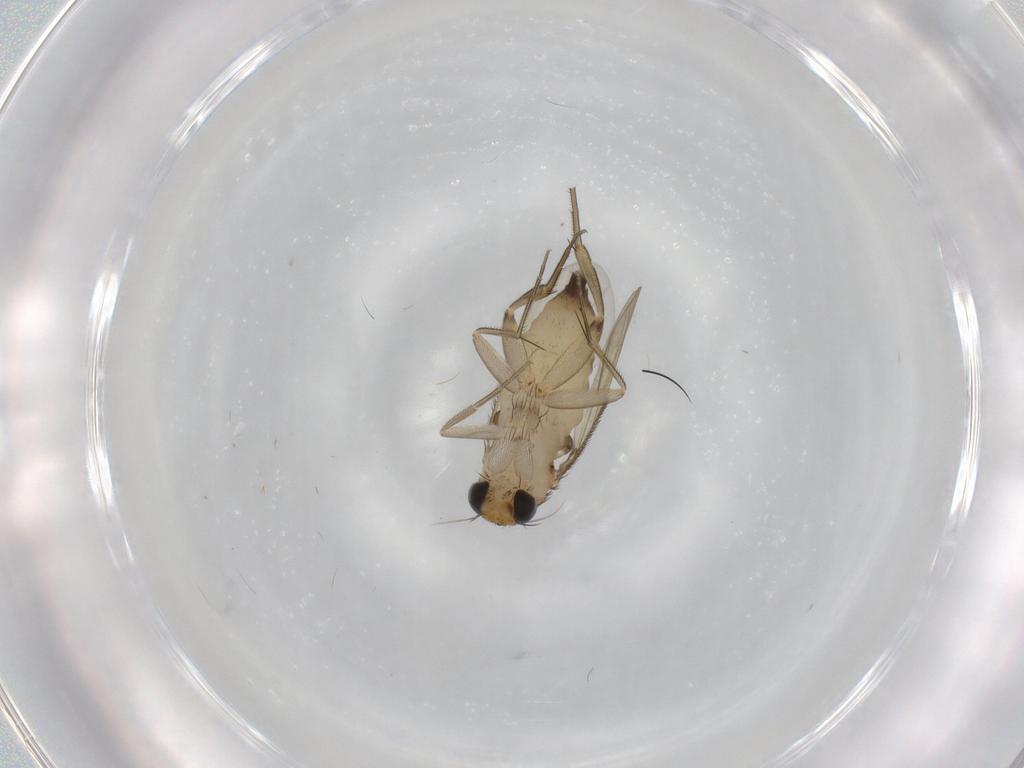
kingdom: Animalia
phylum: Arthropoda
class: Insecta
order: Diptera
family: Phoridae
